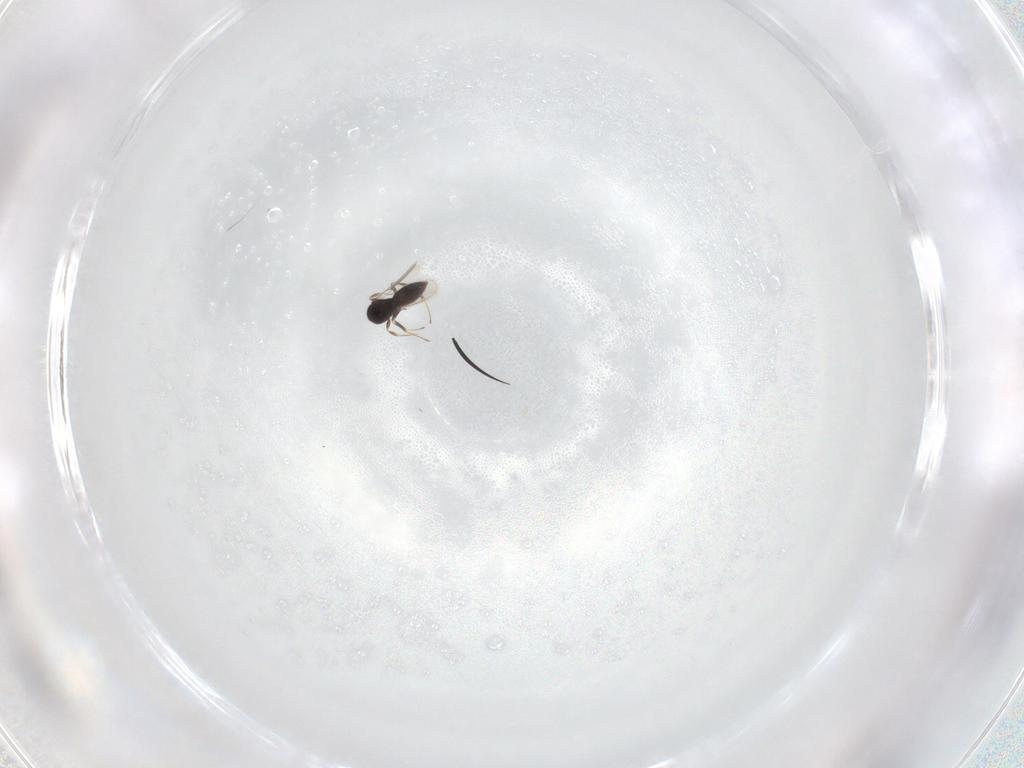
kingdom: Animalia
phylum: Arthropoda
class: Insecta
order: Hymenoptera
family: Scelionidae
